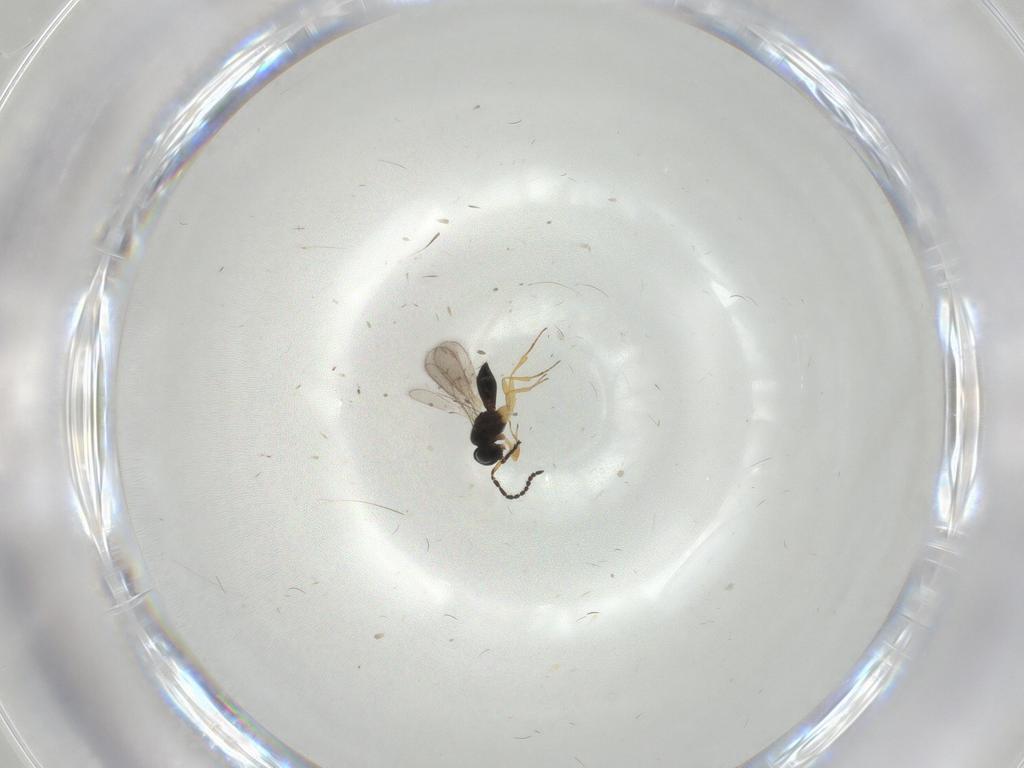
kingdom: Animalia
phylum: Arthropoda
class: Insecta
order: Hymenoptera
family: Scelionidae
